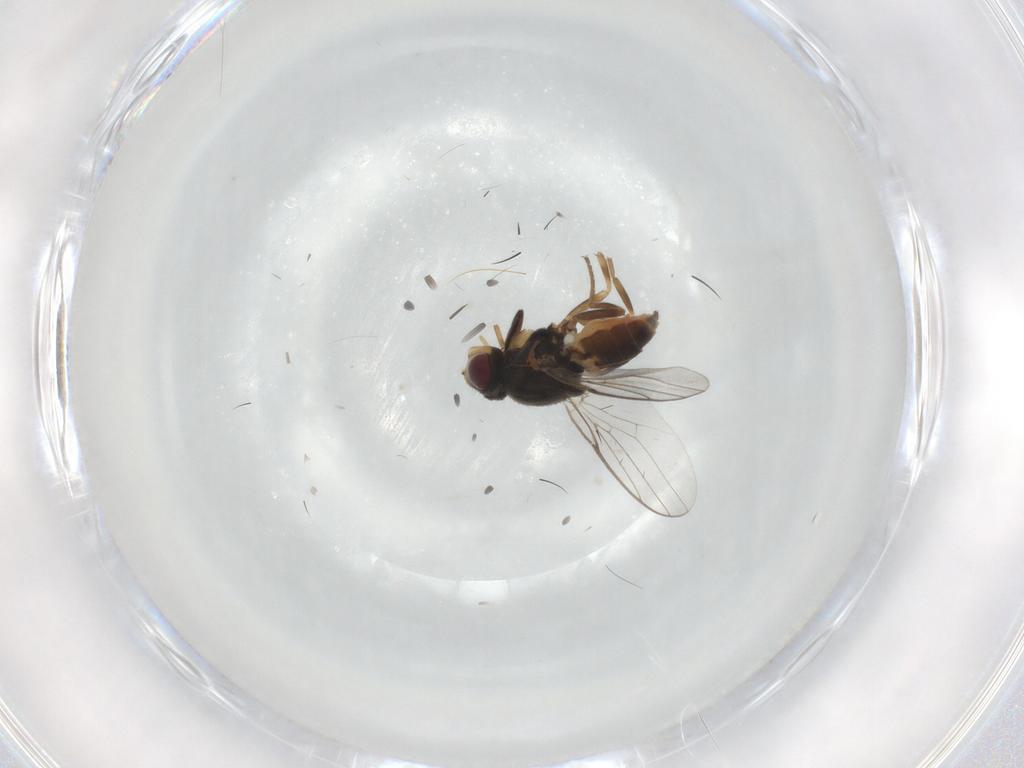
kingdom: Animalia
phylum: Arthropoda
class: Insecta
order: Diptera
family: Chloropidae
